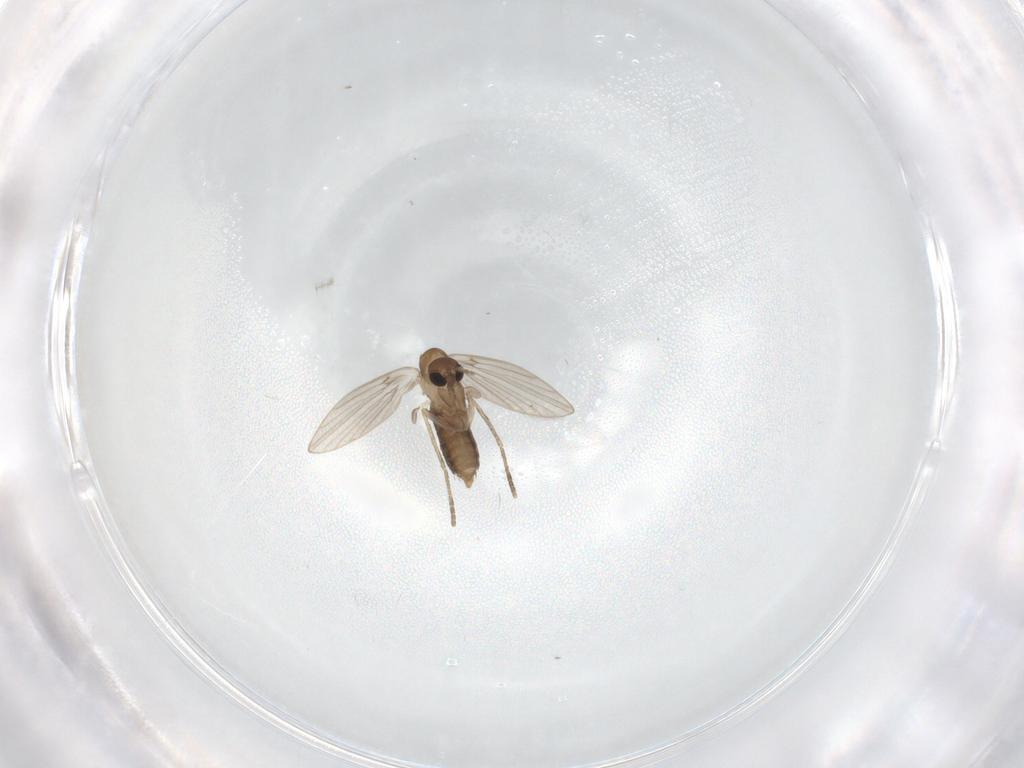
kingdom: Animalia
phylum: Arthropoda
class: Insecta
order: Diptera
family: Chironomidae
